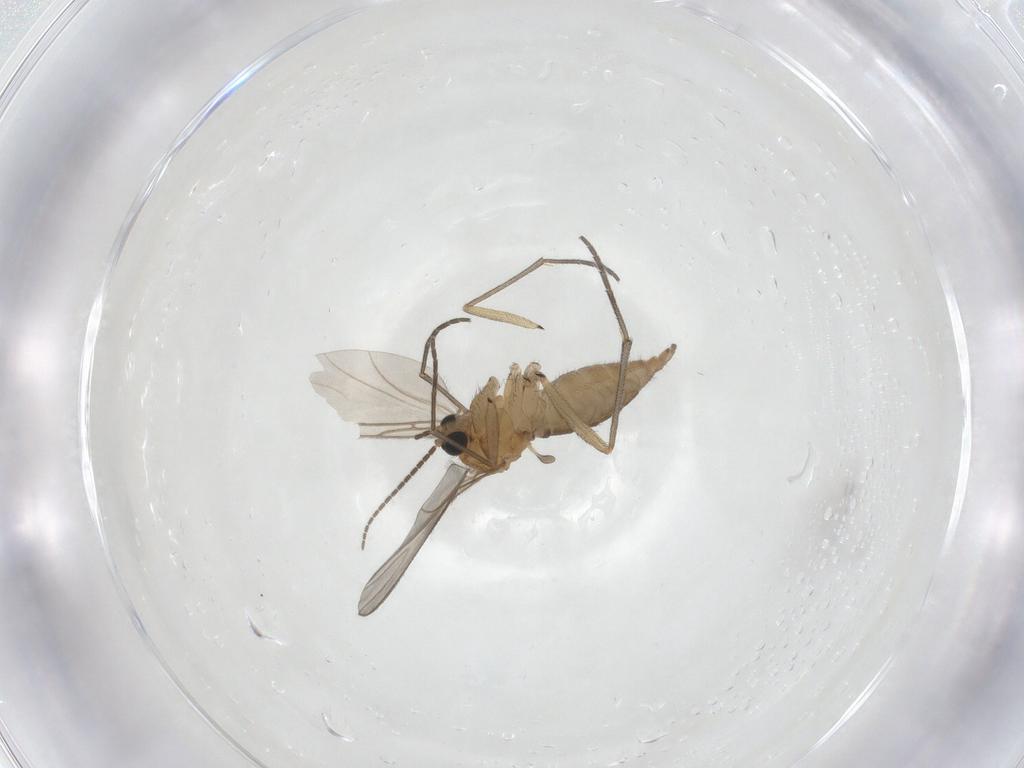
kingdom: Animalia
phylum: Arthropoda
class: Insecta
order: Diptera
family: Sciaridae
